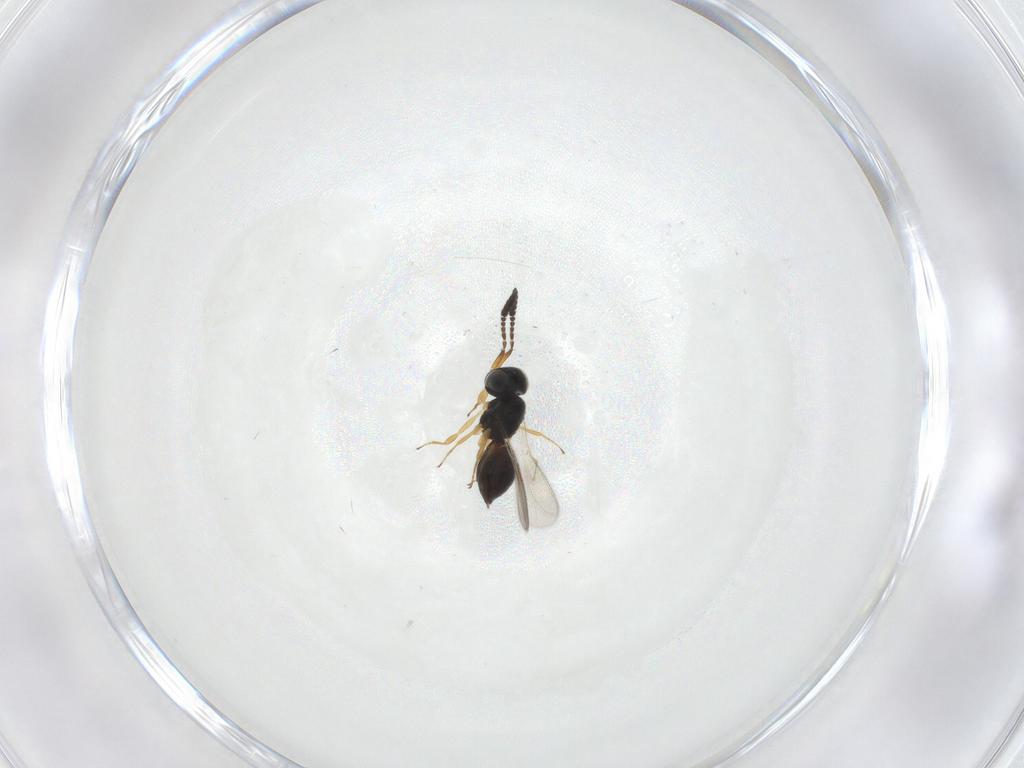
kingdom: Animalia
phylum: Arthropoda
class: Insecta
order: Hymenoptera
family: Scelionidae
